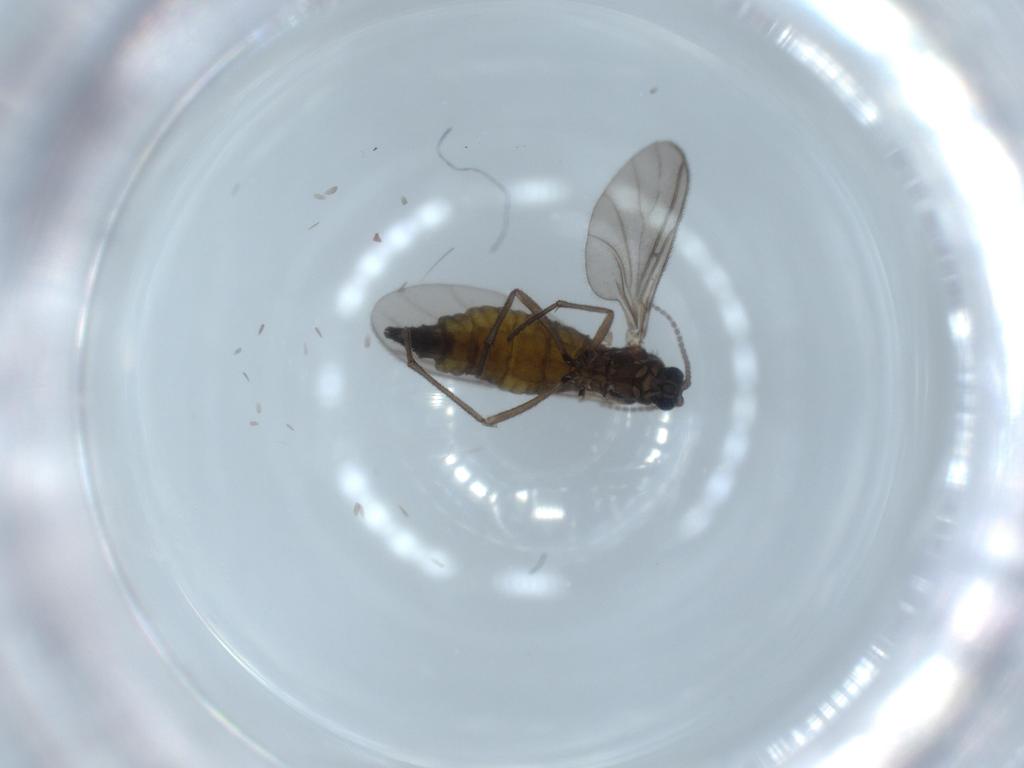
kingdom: Animalia
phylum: Arthropoda
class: Insecta
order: Diptera
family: Sciaridae
